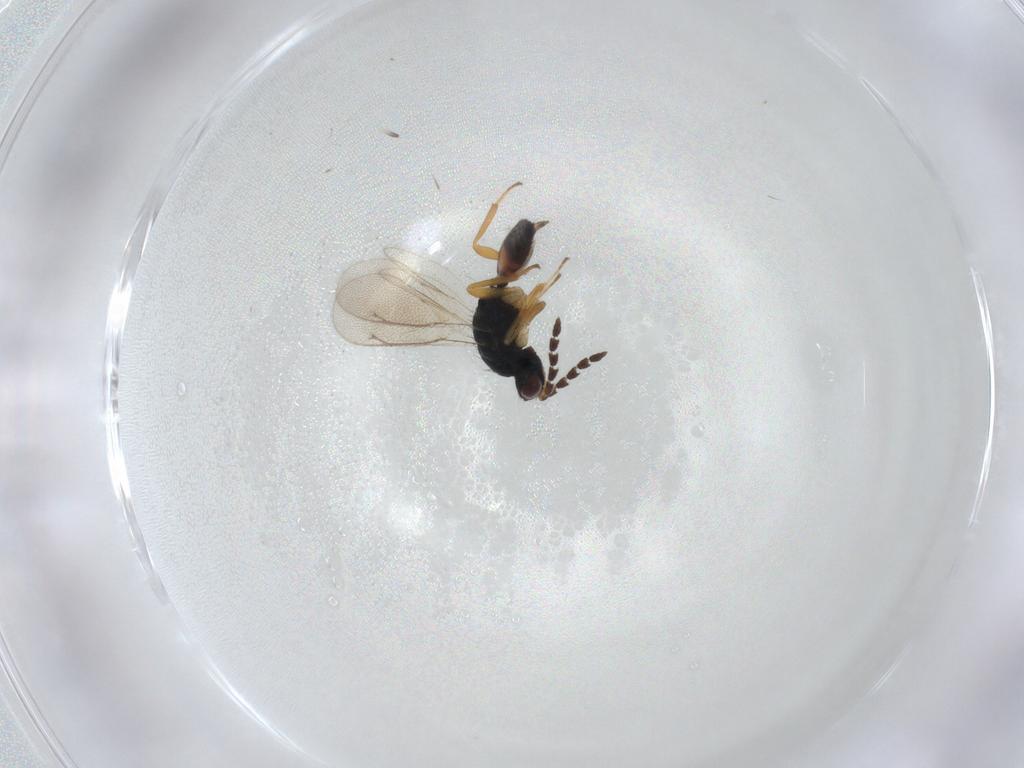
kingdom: Animalia
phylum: Arthropoda
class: Insecta
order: Hymenoptera
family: Eulophidae
